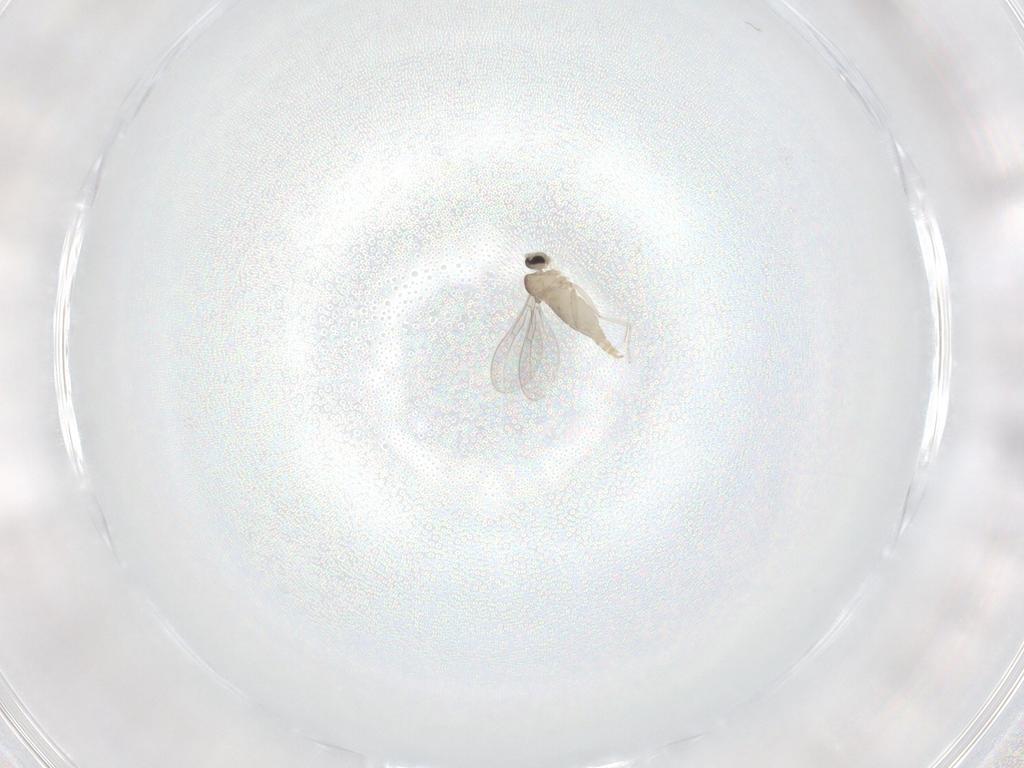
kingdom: Animalia
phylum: Arthropoda
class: Insecta
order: Diptera
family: Cecidomyiidae
